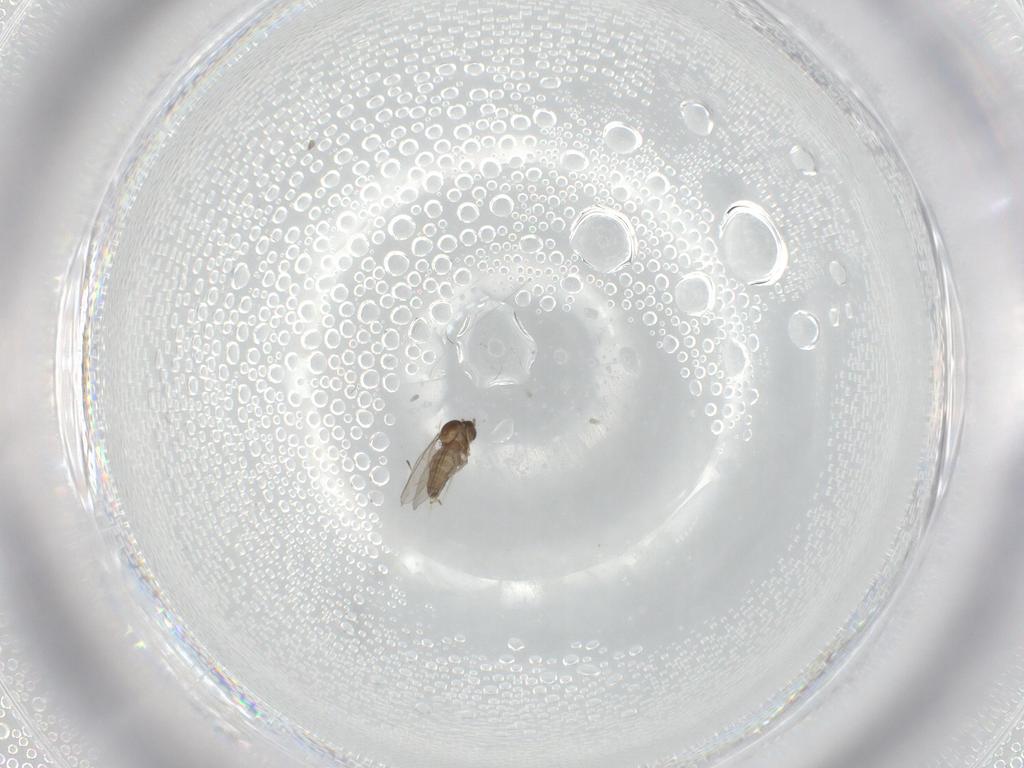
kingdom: Animalia
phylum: Arthropoda
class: Insecta
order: Diptera
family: Cecidomyiidae
